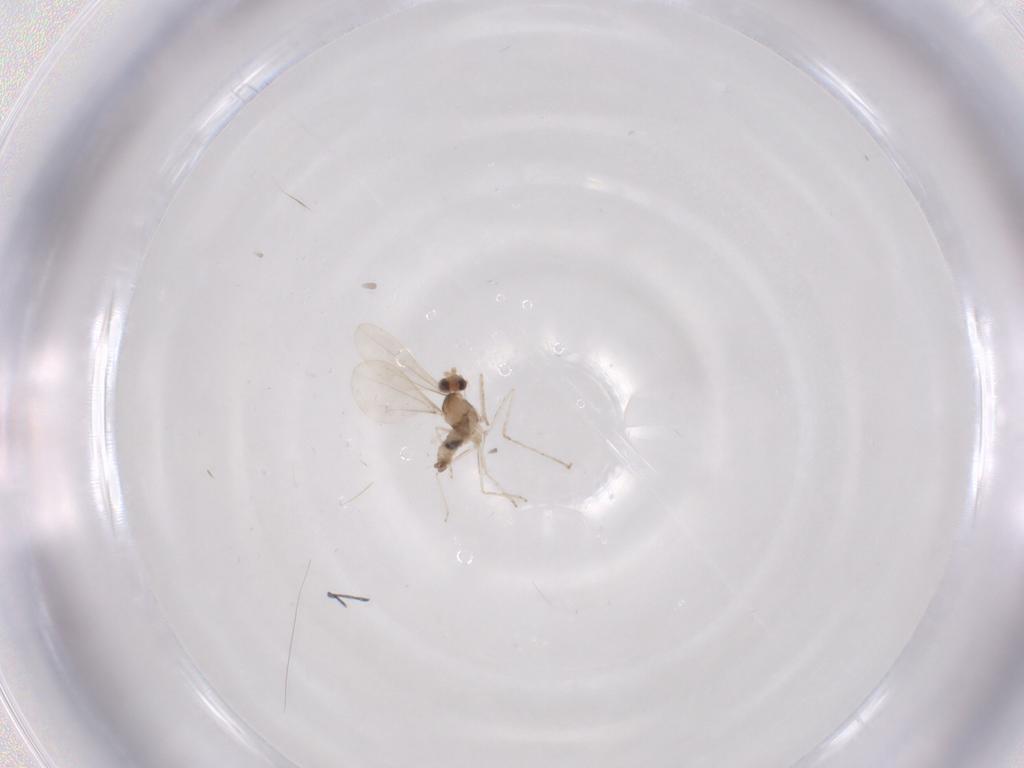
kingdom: Animalia
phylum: Arthropoda
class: Insecta
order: Diptera
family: Cecidomyiidae
